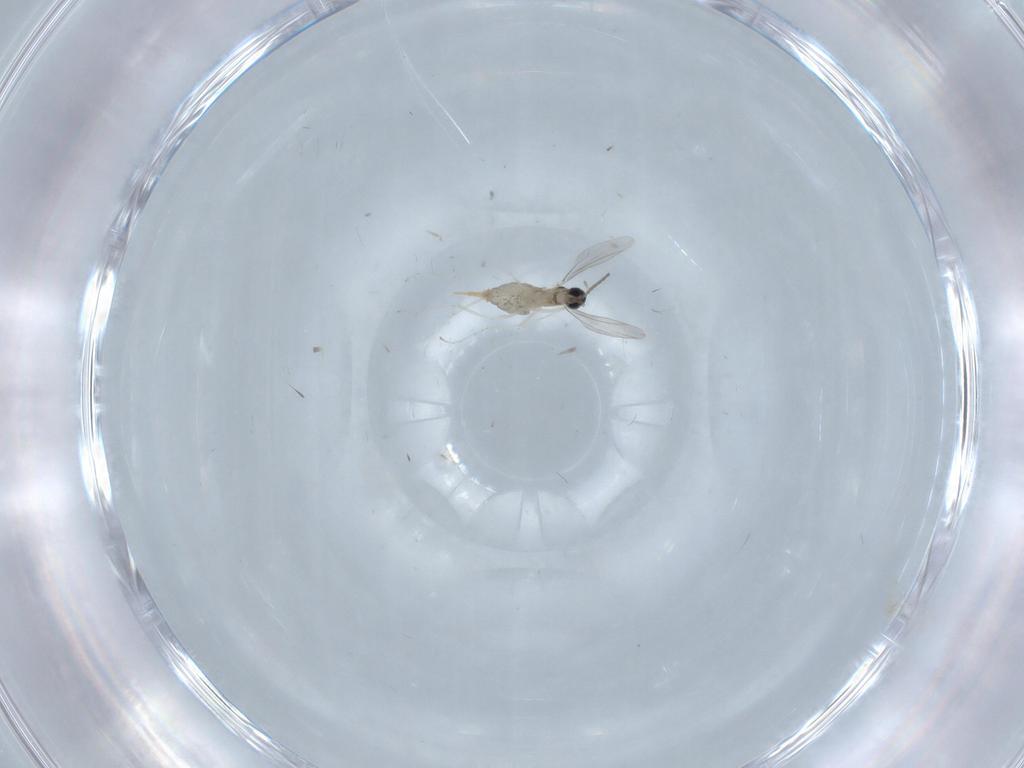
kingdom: Animalia
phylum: Arthropoda
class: Insecta
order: Diptera
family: Cecidomyiidae
